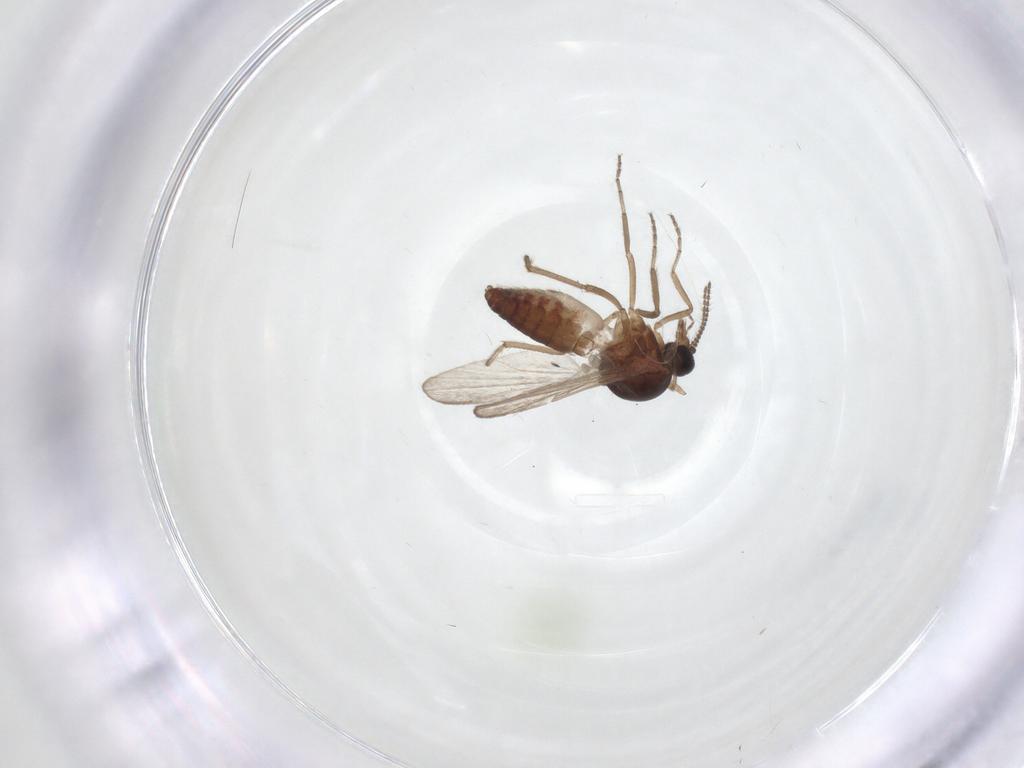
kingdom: Animalia
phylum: Arthropoda
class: Insecta
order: Diptera
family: Ceratopogonidae
